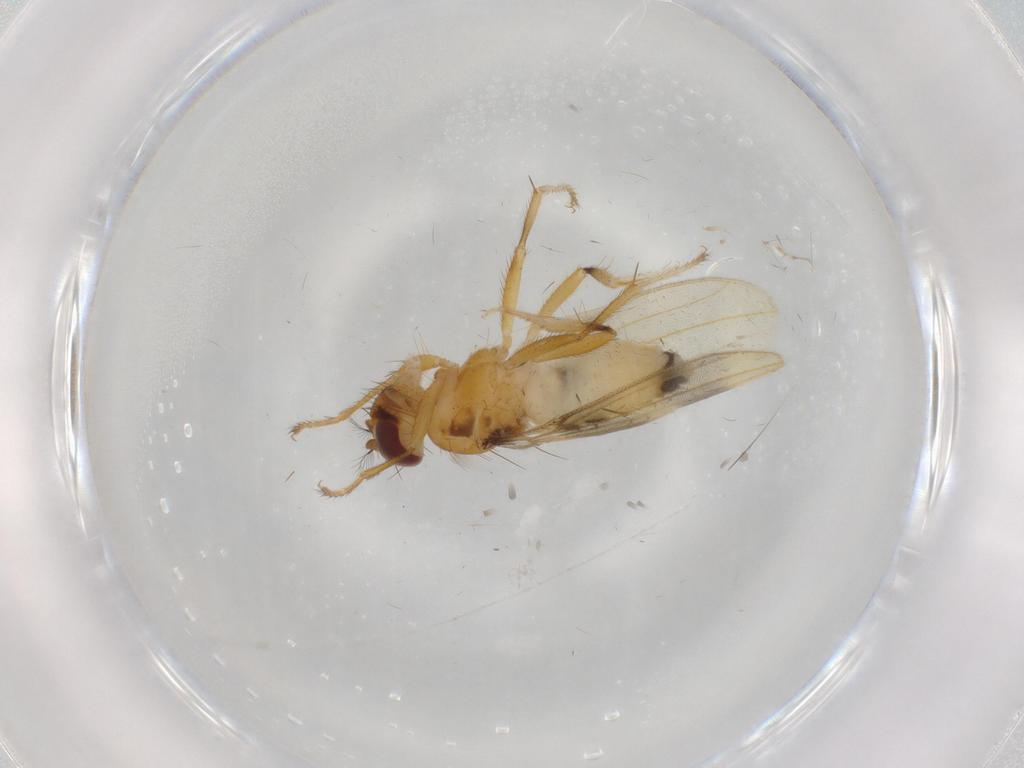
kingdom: Animalia
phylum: Arthropoda
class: Insecta
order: Diptera
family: Periscelididae
